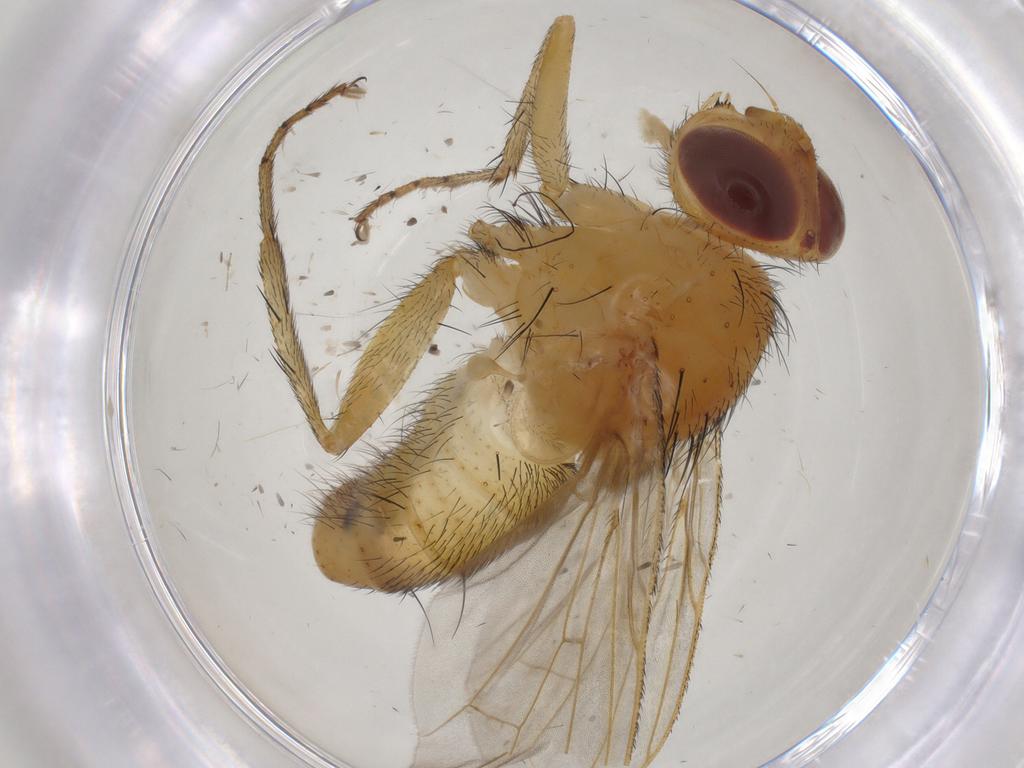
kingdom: Animalia
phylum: Arthropoda
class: Insecta
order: Diptera
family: Tachinidae
